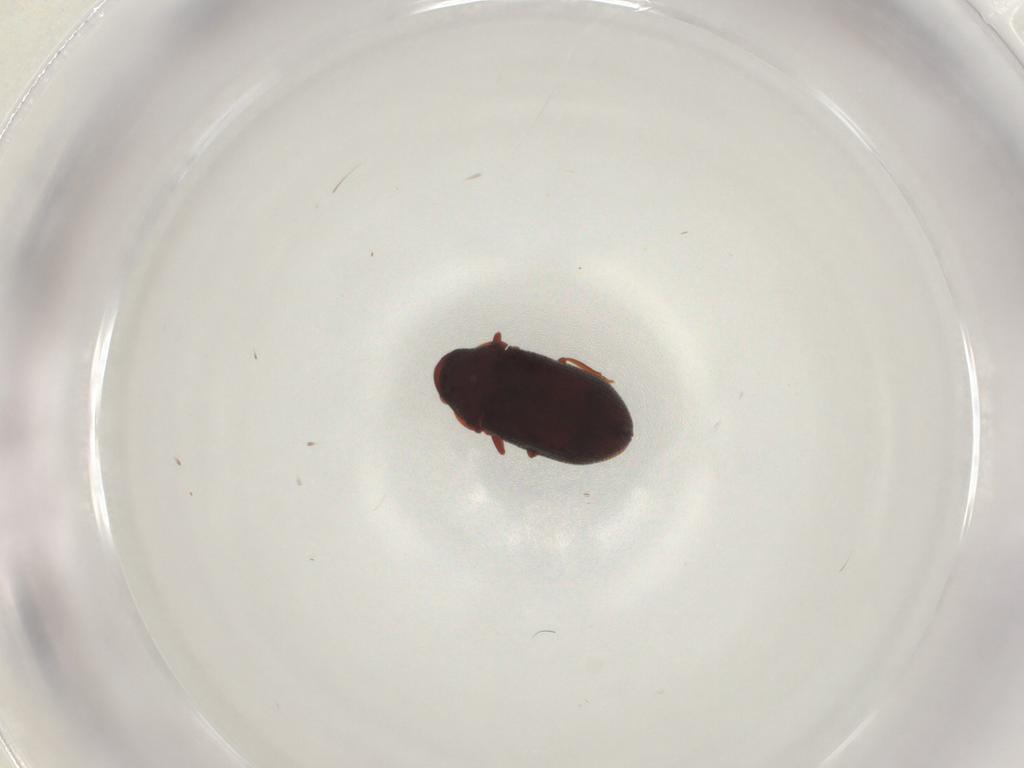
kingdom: Animalia
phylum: Arthropoda
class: Insecta
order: Coleoptera
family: Ptinidae
